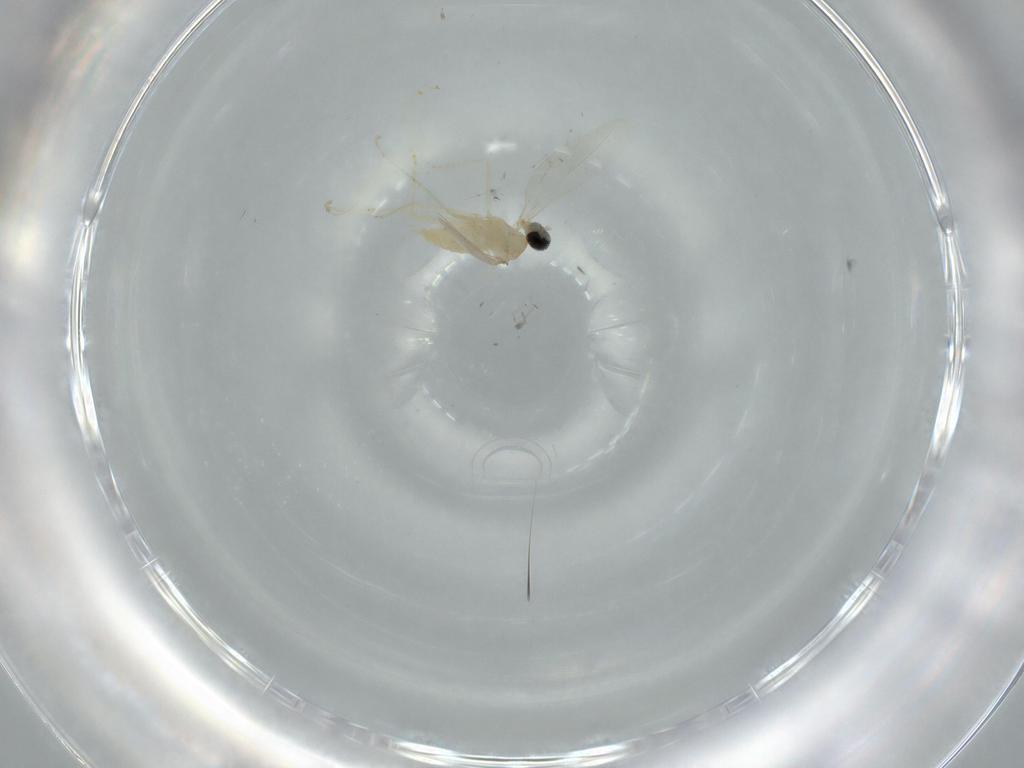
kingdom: Animalia
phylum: Arthropoda
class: Insecta
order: Diptera
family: Cecidomyiidae
